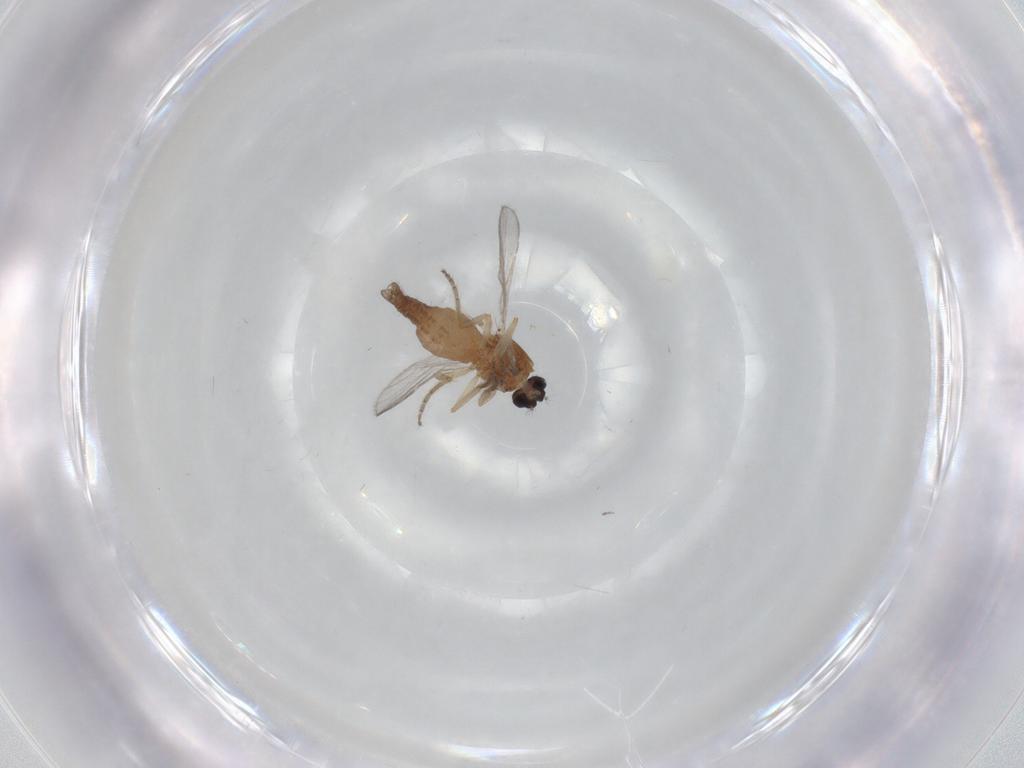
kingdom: Animalia
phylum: Arthropoda
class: Insecta
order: Diptera
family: Ceratopogonidae
